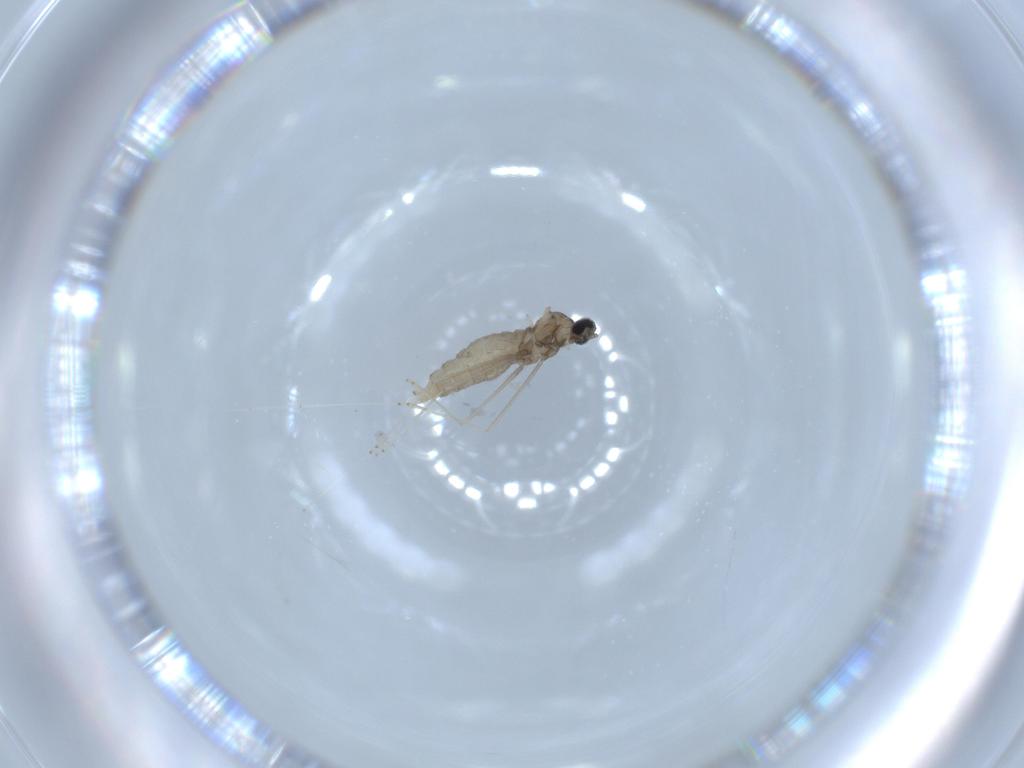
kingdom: Animalia
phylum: Arthropoda
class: Insecta
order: Diptera
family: Cecidomyiidae
